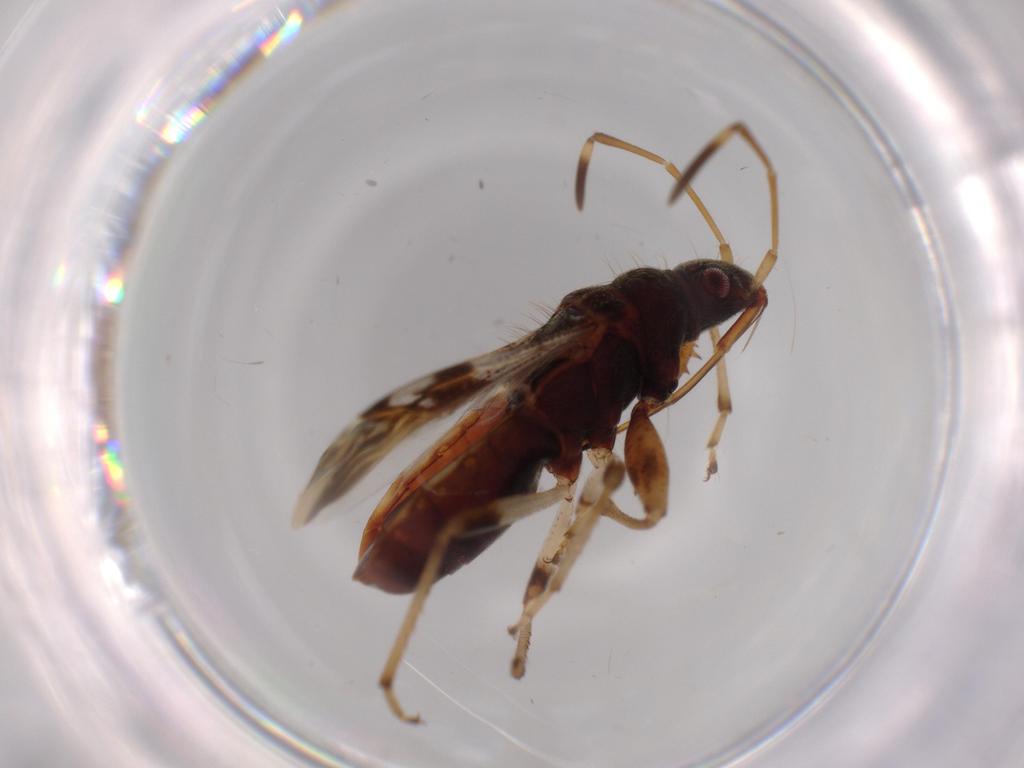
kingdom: Animalia
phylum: Arthropoda
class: Insecta
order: Hemiptera
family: Rhyparochromidae
